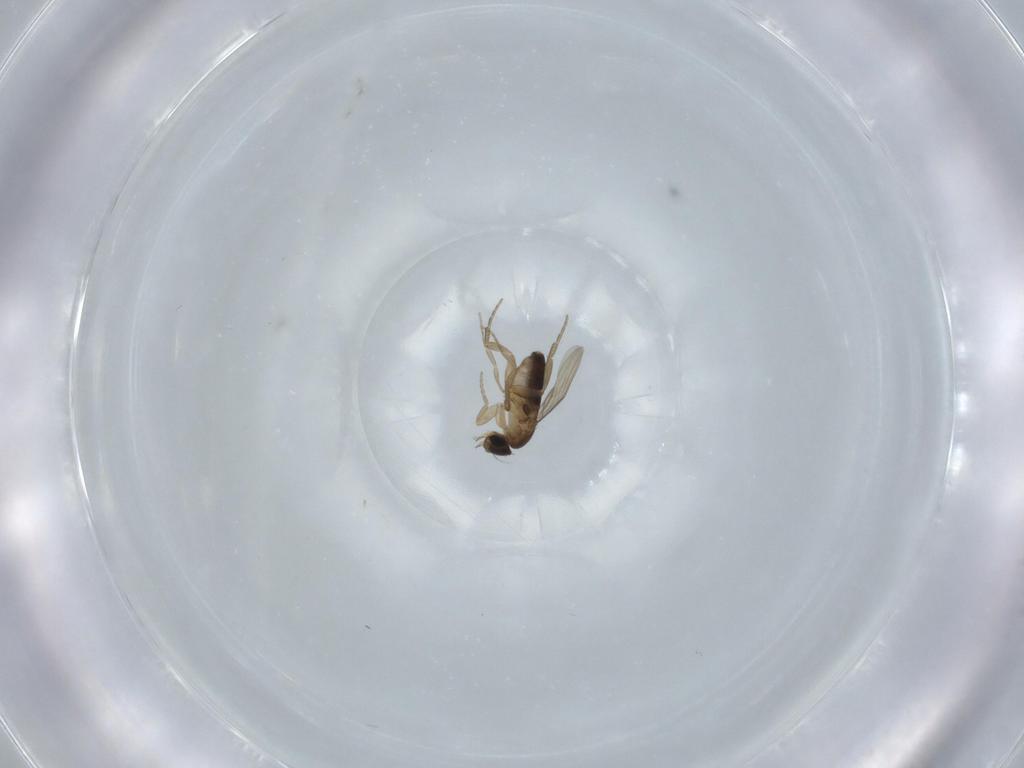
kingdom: Animalia
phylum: Arthropoda
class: Insecta
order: Diptera
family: Phoridae
